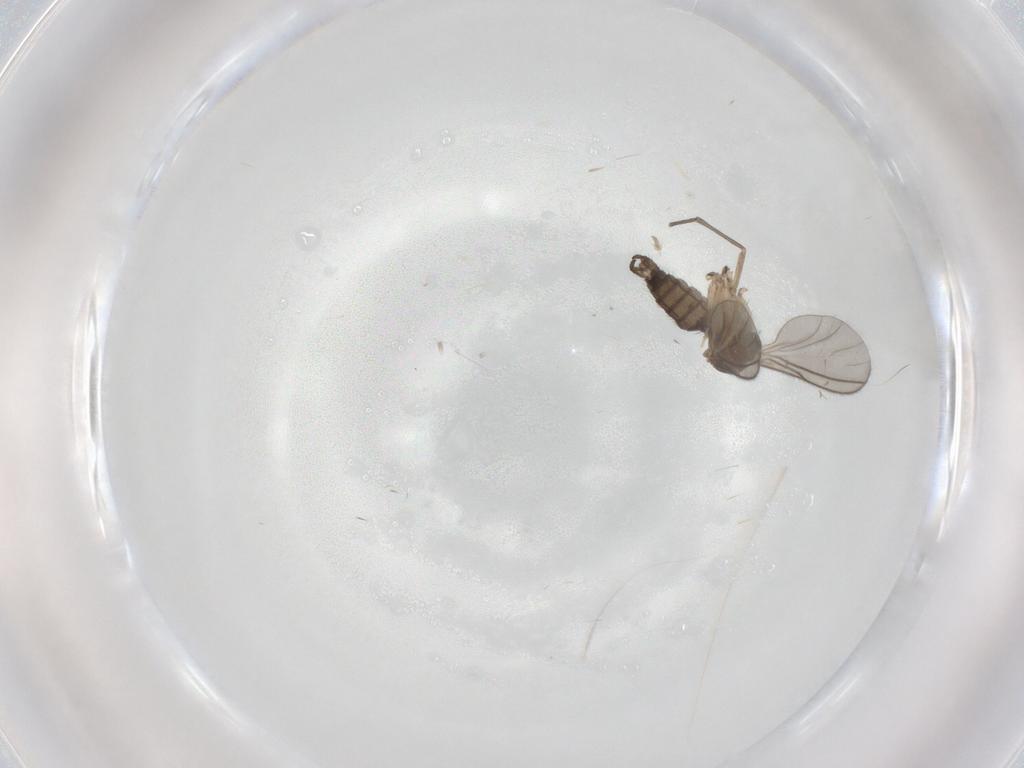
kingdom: Animalia
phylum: Arthropoda
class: Insecta
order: Diptera
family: Sciaridae
